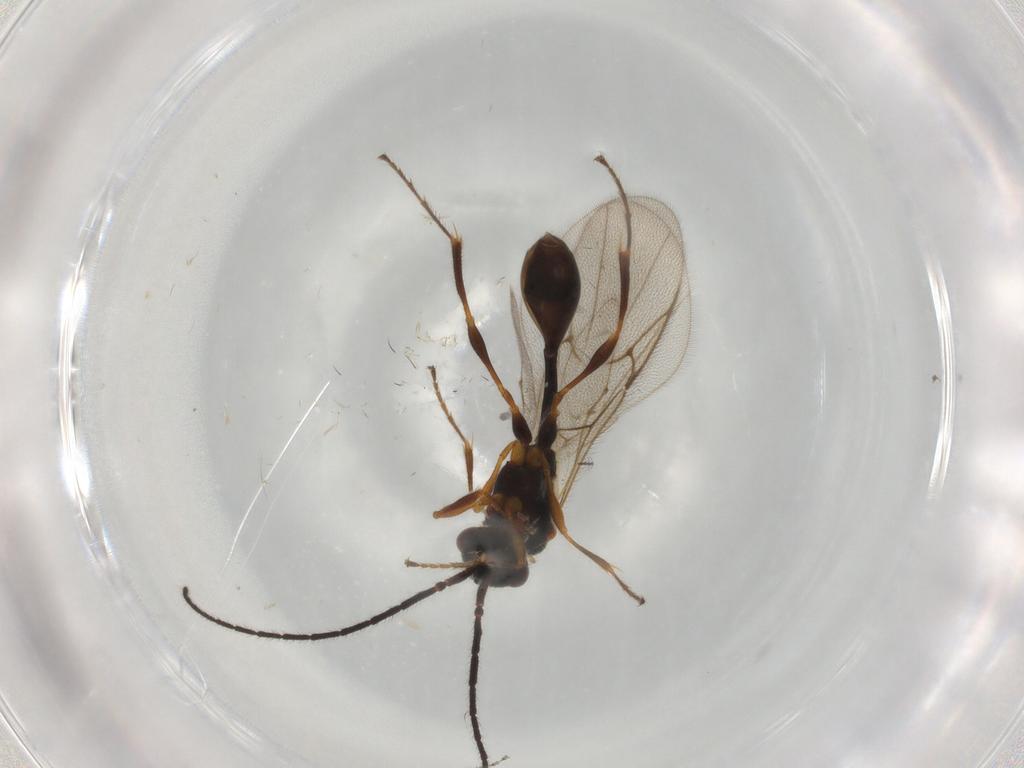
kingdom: Animalia
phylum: Arthropoda
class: Insecta
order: Hymenoptera
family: Diapriidae
